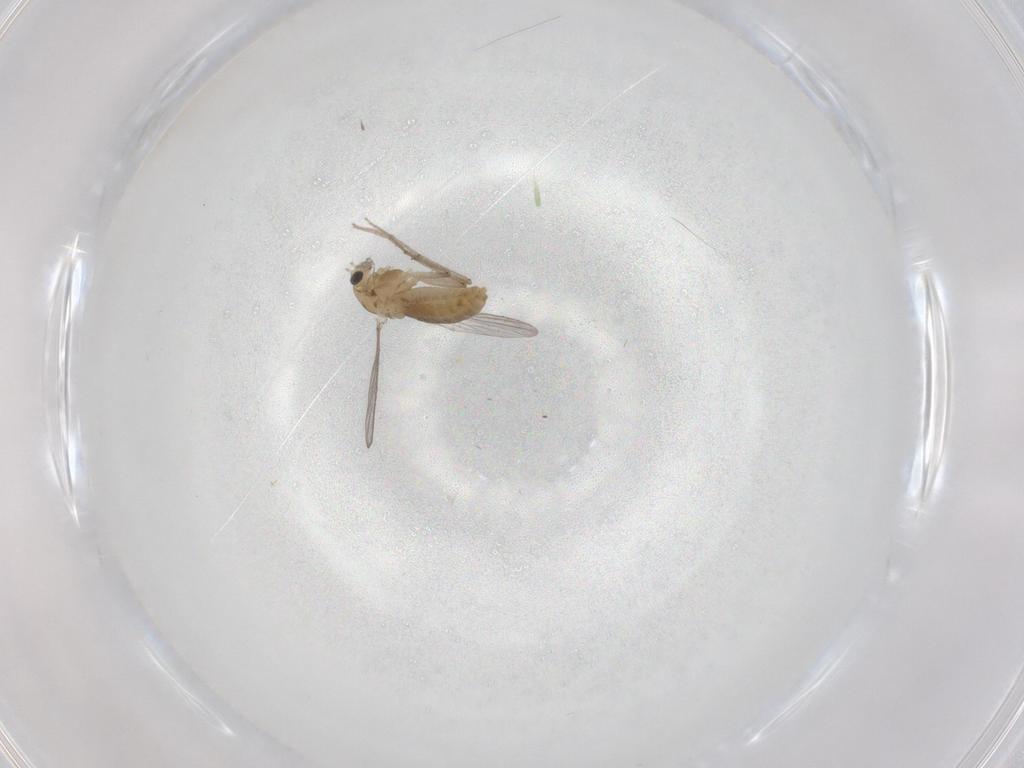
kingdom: Animalia
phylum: Arthropoda
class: Insecta
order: Diptera
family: Chironomidae
